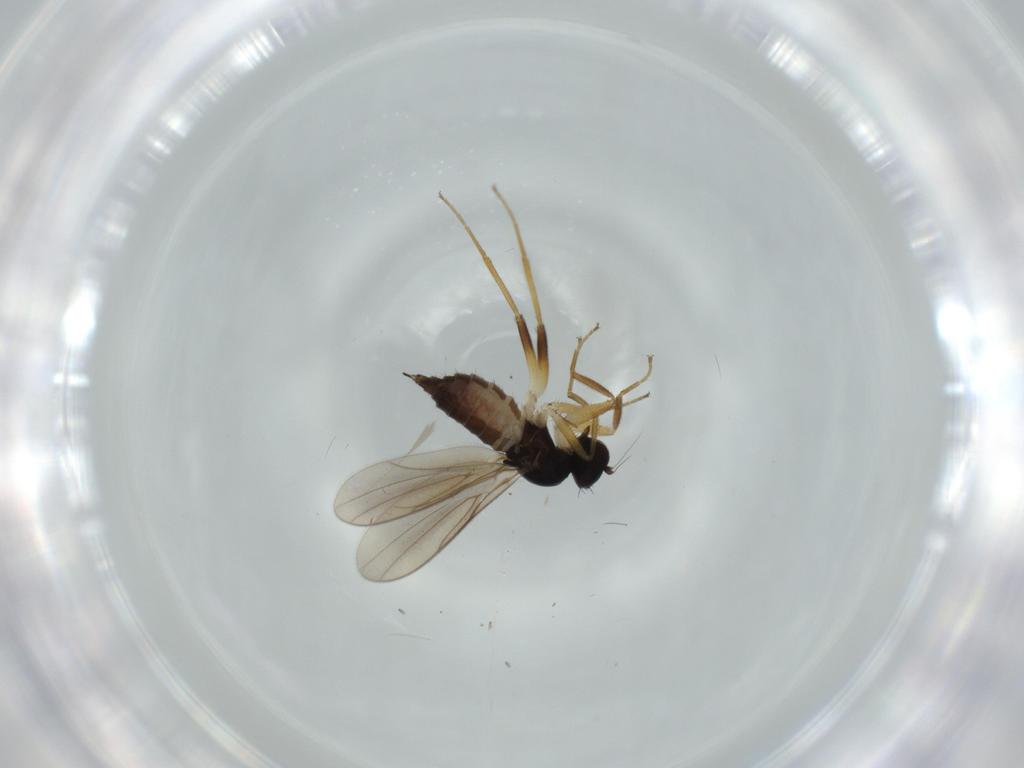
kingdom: Animalia
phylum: Arthropoda
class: Insecta
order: Diptera
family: Hybotidae
